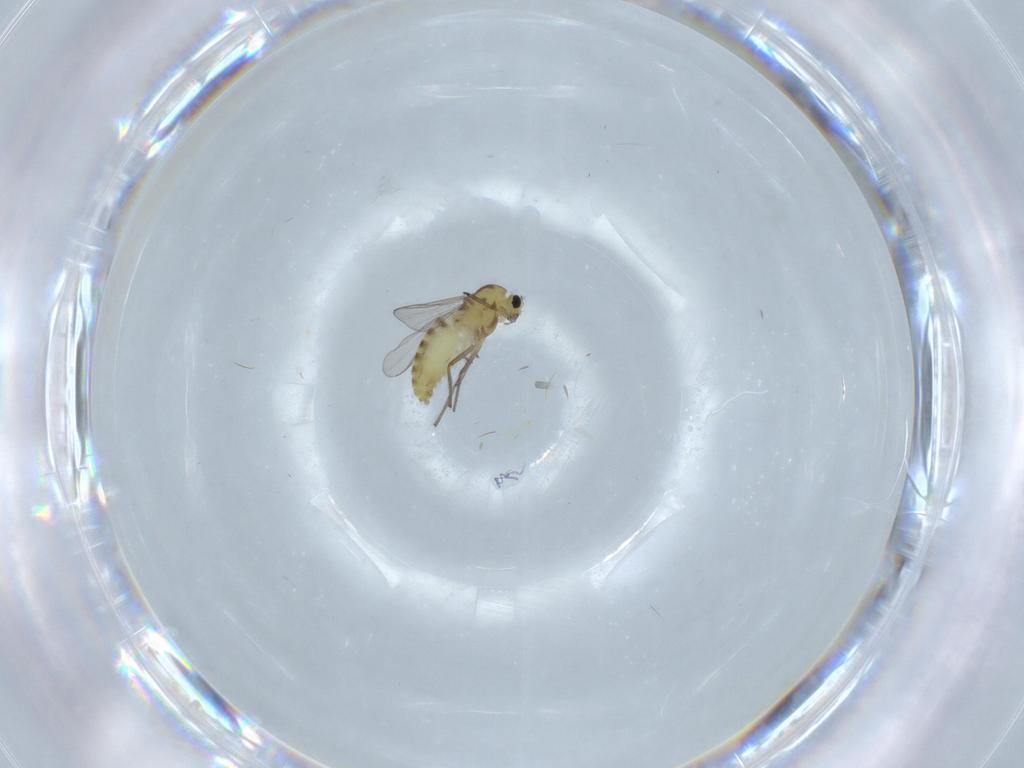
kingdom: Animalia
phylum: Arthropoda
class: Insecta
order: Diptera
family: Chironomidae
